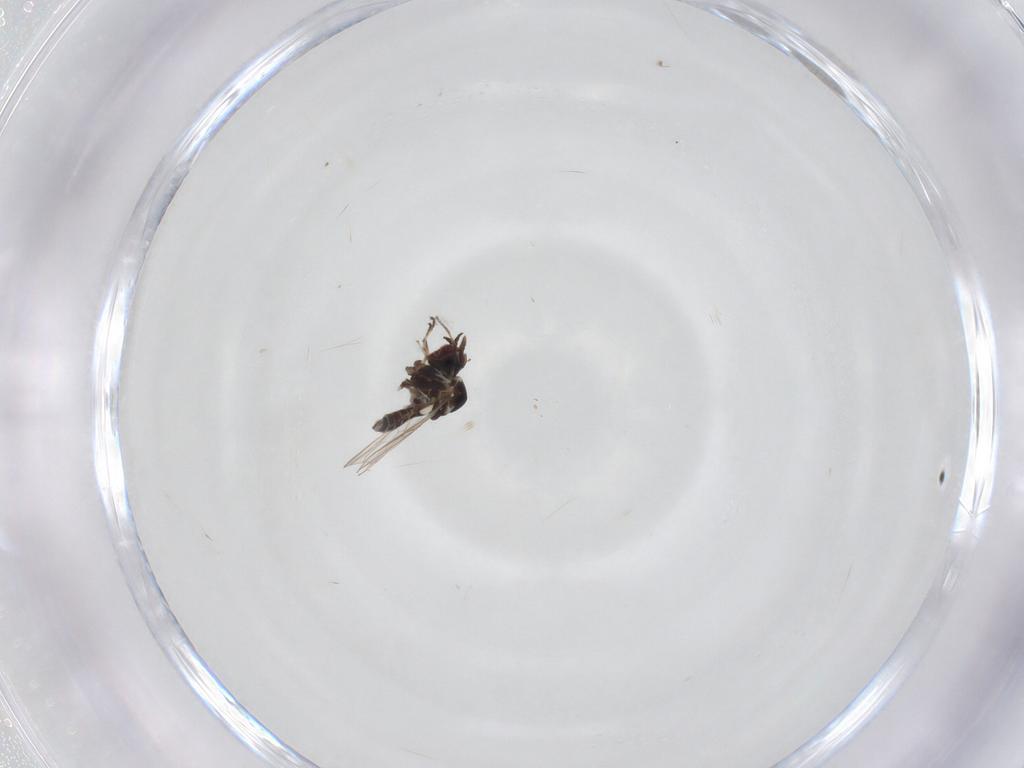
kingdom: Animalia
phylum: Arthropoda
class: Insecta
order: Diptera
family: Mythicomyiidae
